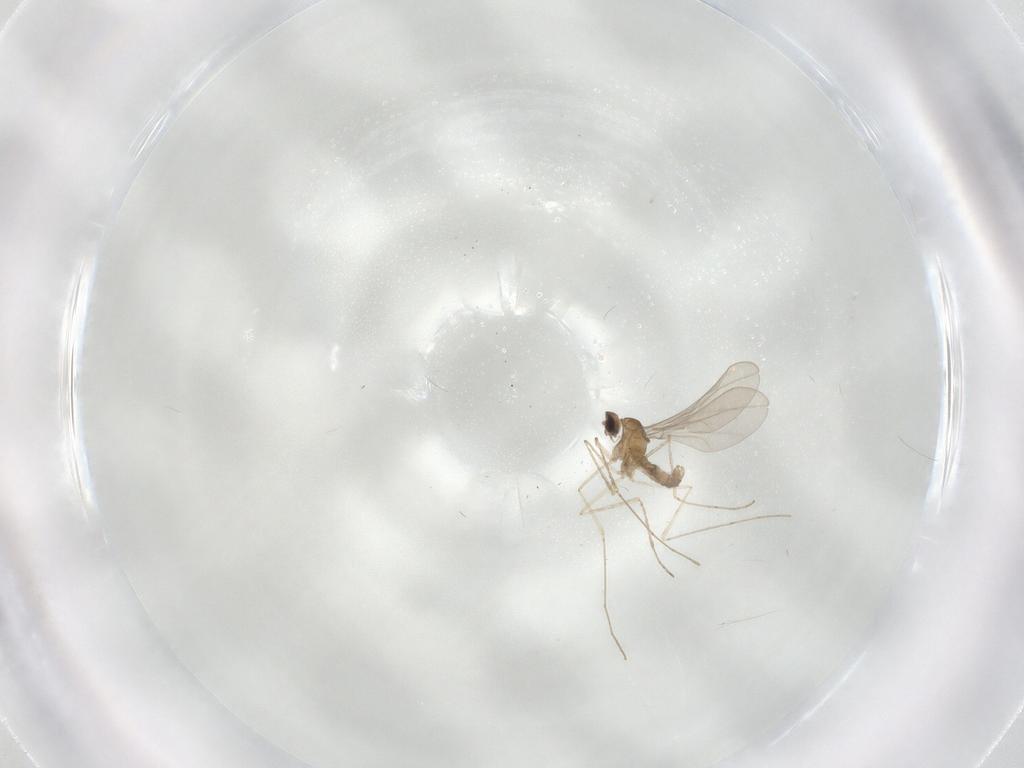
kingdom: Animalia
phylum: Arthropoda
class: Insecta
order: Diptera
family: Cecidomyiidae
